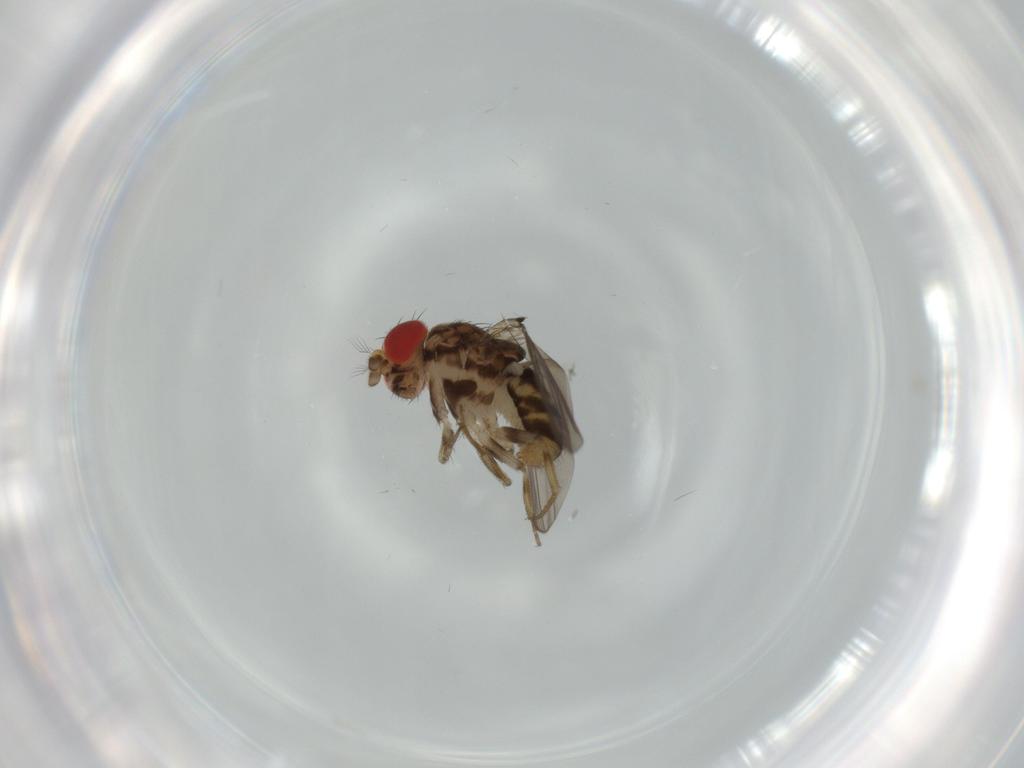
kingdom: Animalia
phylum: Arthropoda
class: Insecta
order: Diptera
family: Drosophilidae
